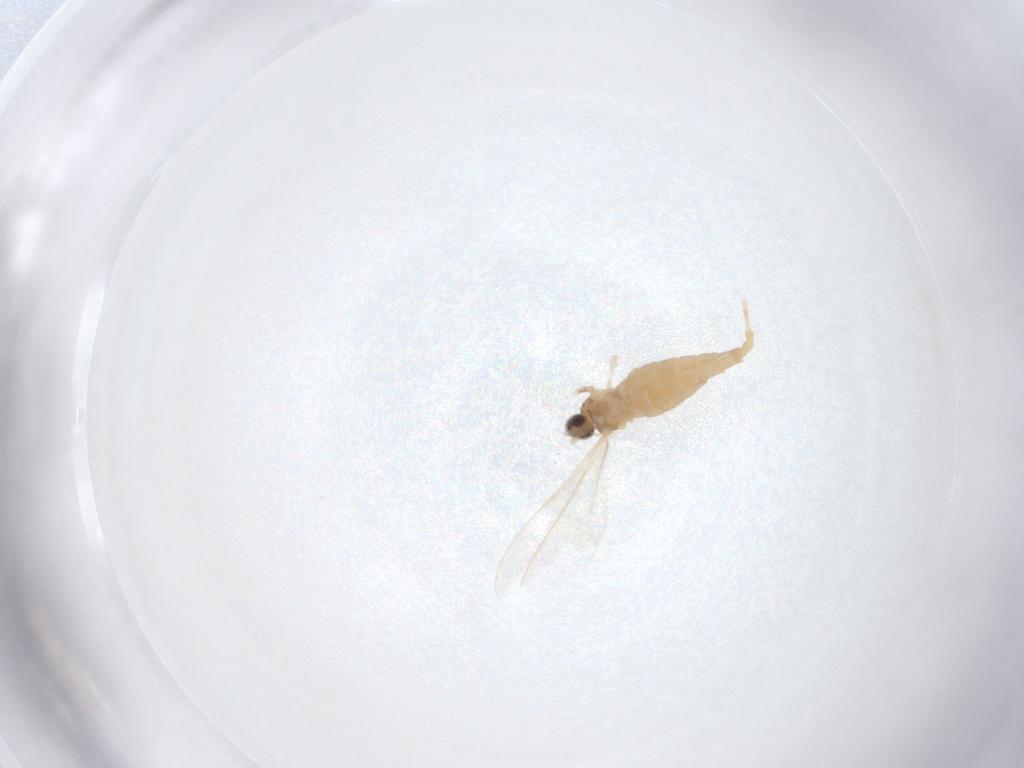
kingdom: Animalia
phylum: Arthropoda
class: Insecta
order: Diptera
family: Cecidomyiidae
